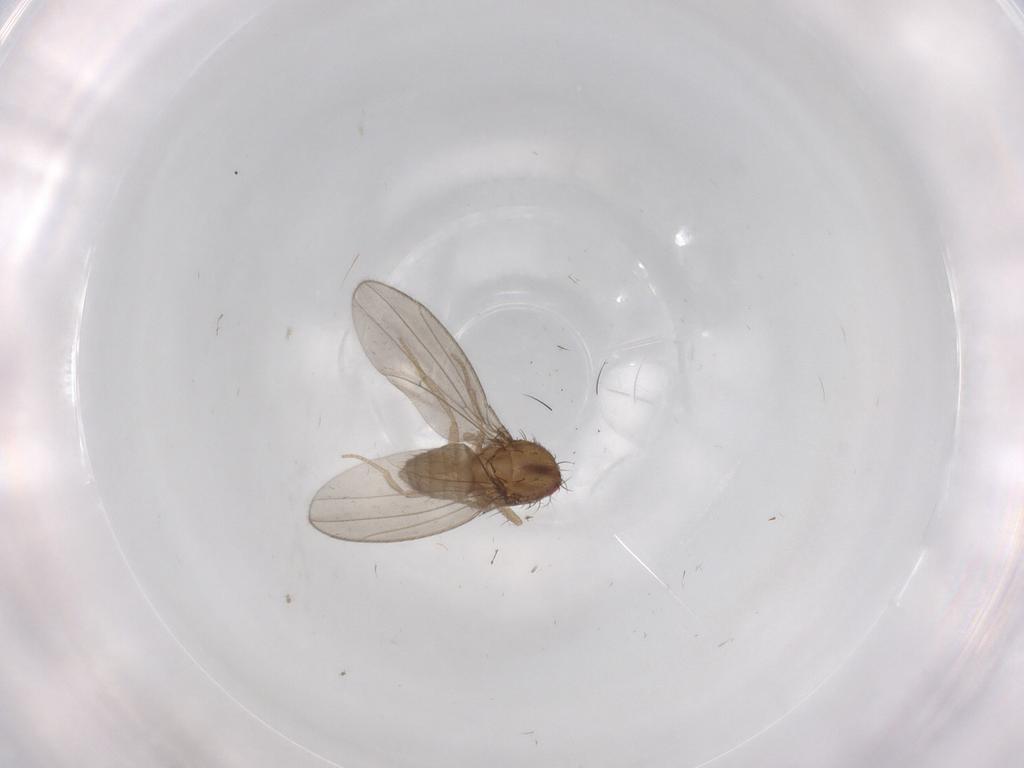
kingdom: Animalia
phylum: Arthropoda
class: Insecta
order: Diptera
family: Drosophilidae
